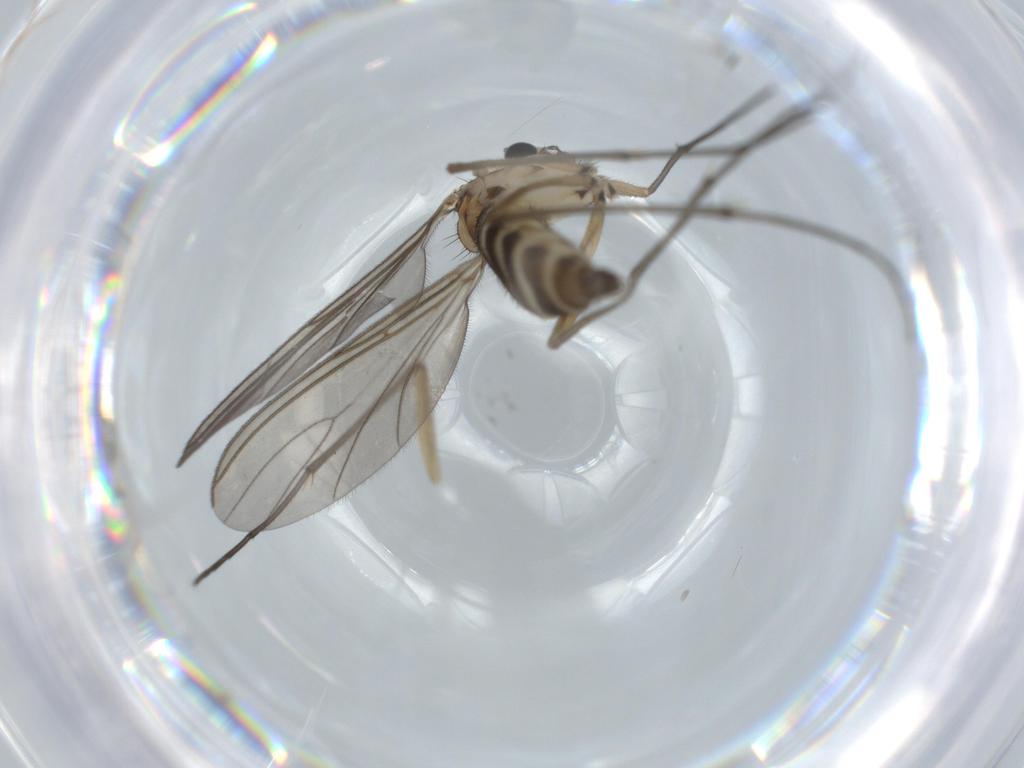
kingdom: Animalia
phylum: Arthropoda
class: Insecta
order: Diptera
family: Sciaridae
